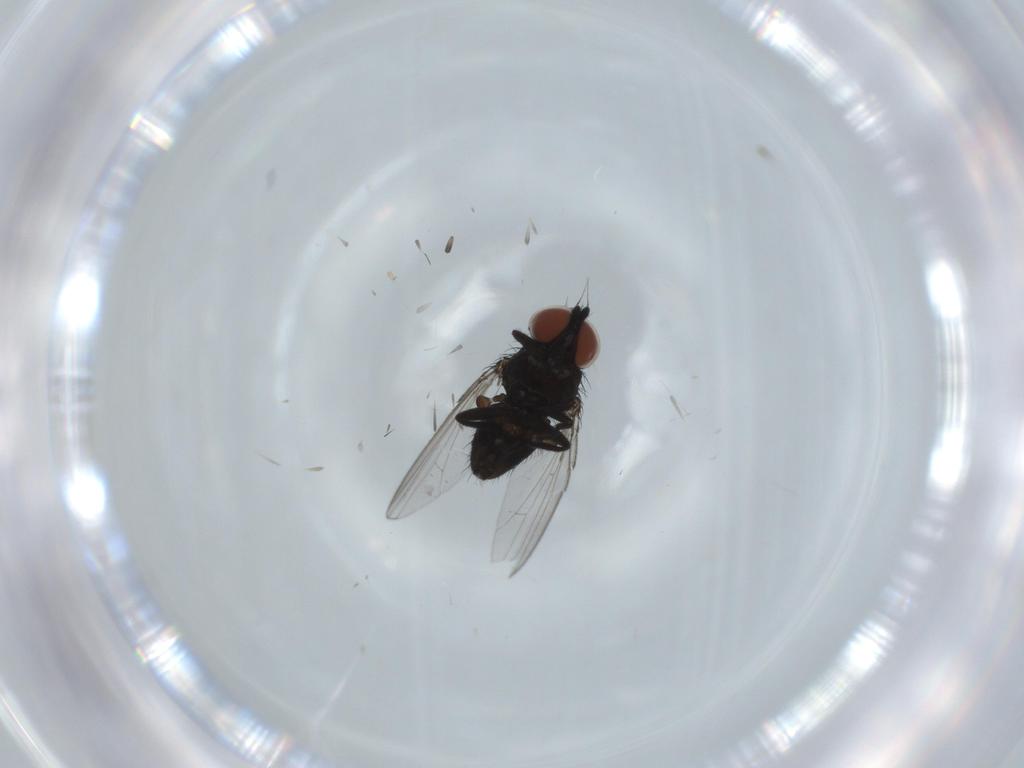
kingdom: Animalia
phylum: Arthropoda
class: Insecta
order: Diptera
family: Milichiidae
